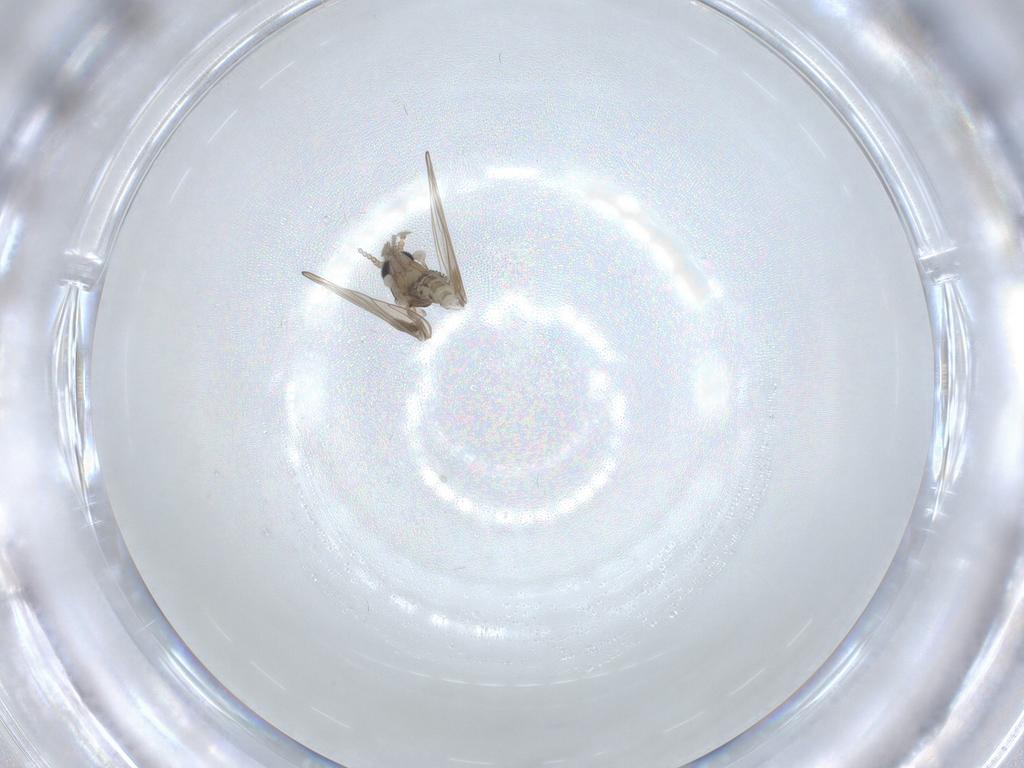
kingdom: Animalia
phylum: Arthropoda
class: Insecta
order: Diptera
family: Psychodidae
